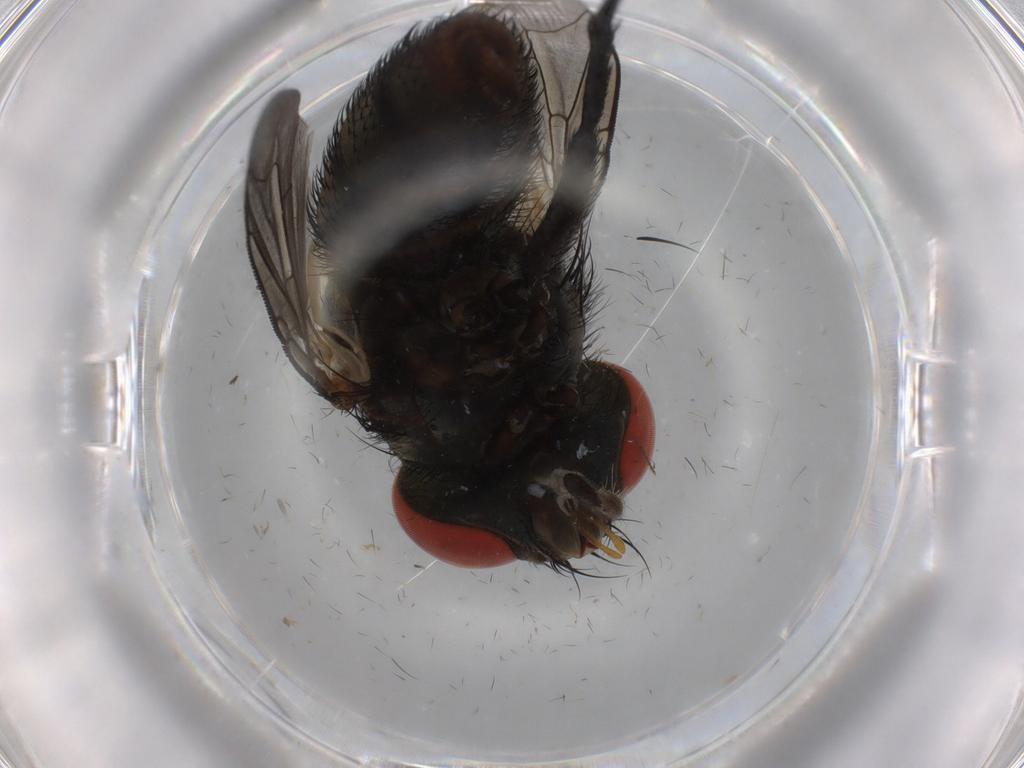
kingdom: Animalia
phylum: Arthropoda
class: Insecta
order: Diptera
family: Sarcophagidae
